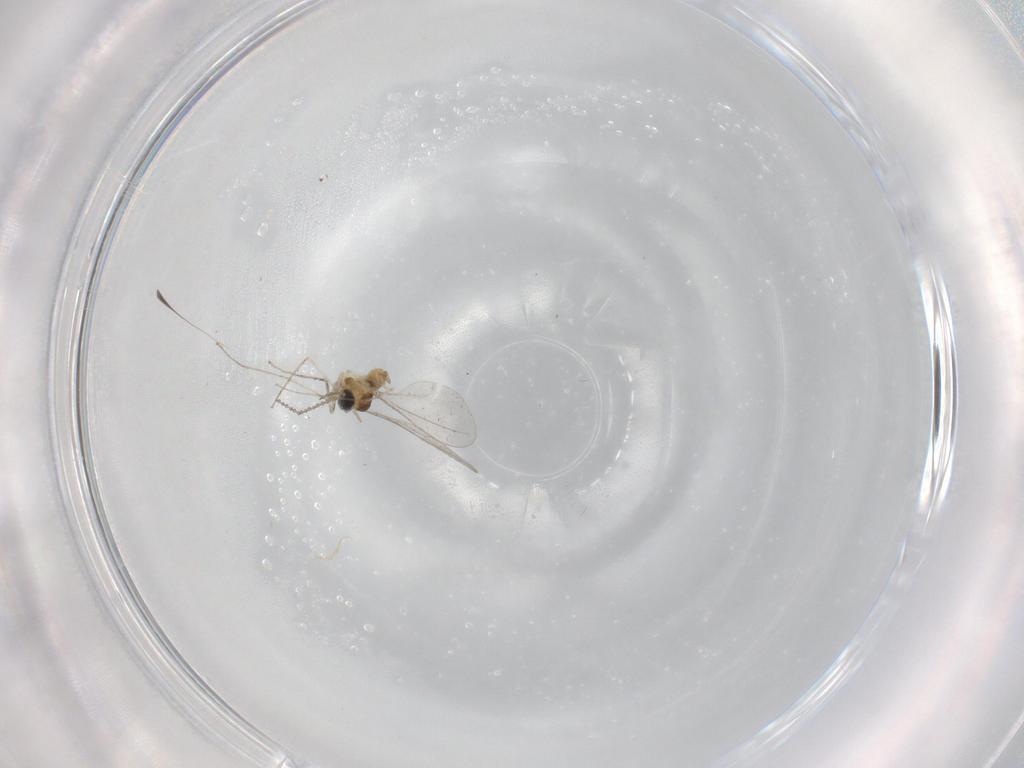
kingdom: Animalia
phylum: Arthropoda
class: Insecta
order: Diptera
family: Cecidomyiidae
